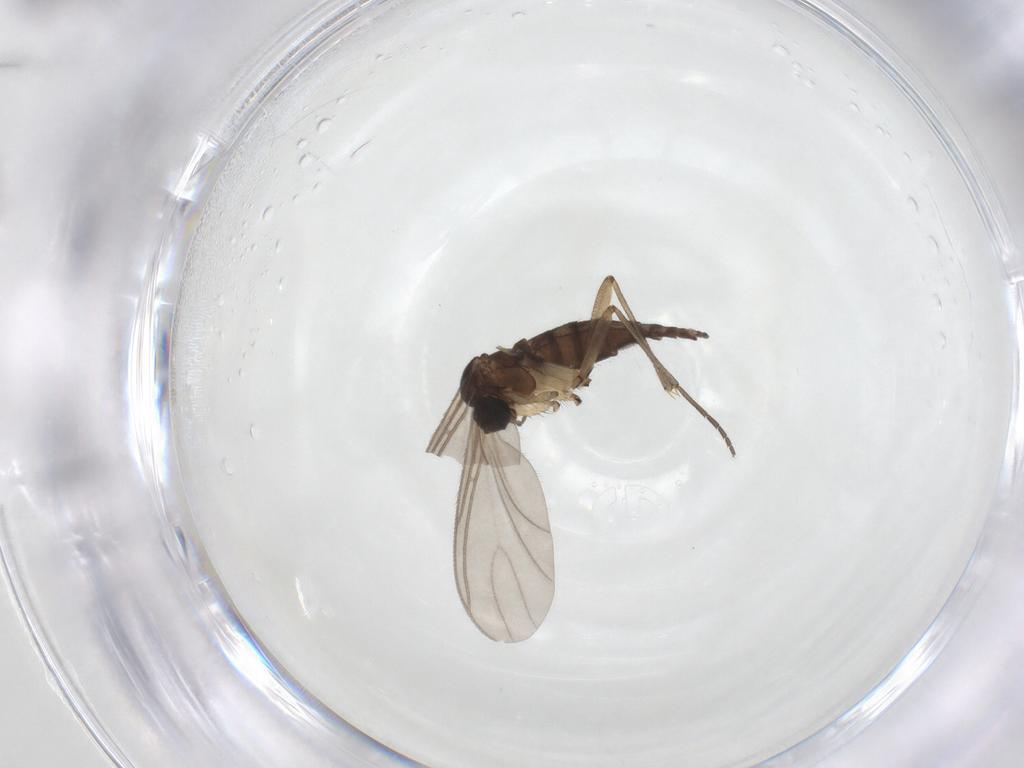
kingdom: Animalia
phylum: Arthropoda
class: Insecta
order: Diptera
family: Sciaridae
